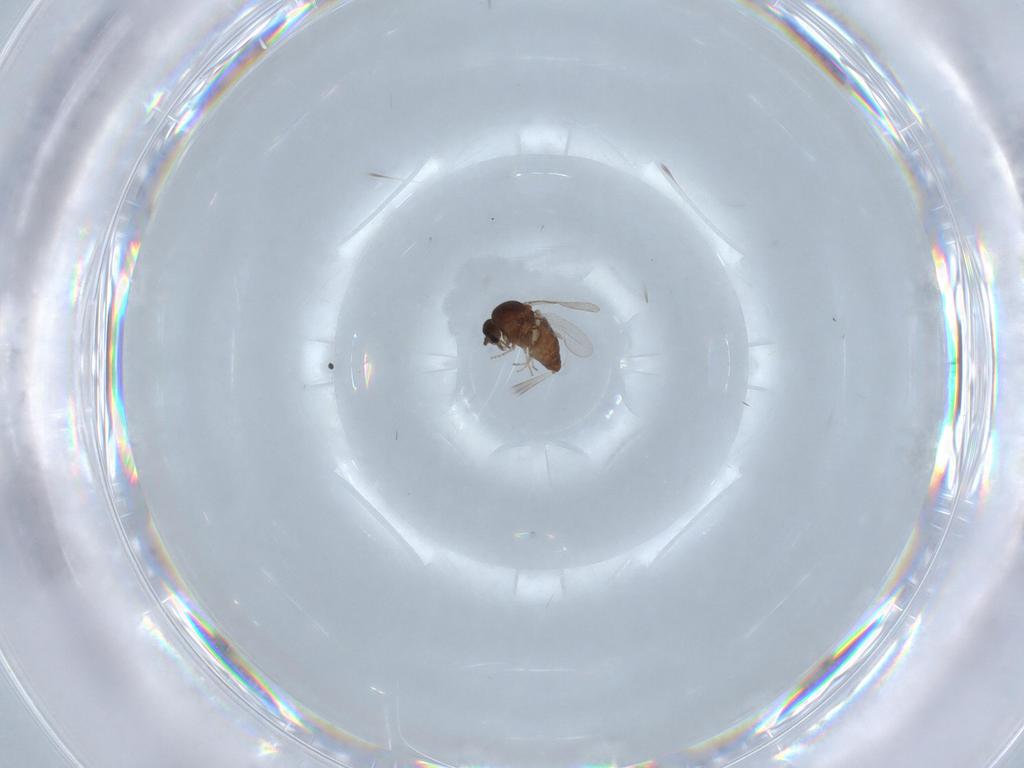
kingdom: Animalia
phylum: Arthropoda
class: Insecta
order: Diptera
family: Ceratopogonidae
